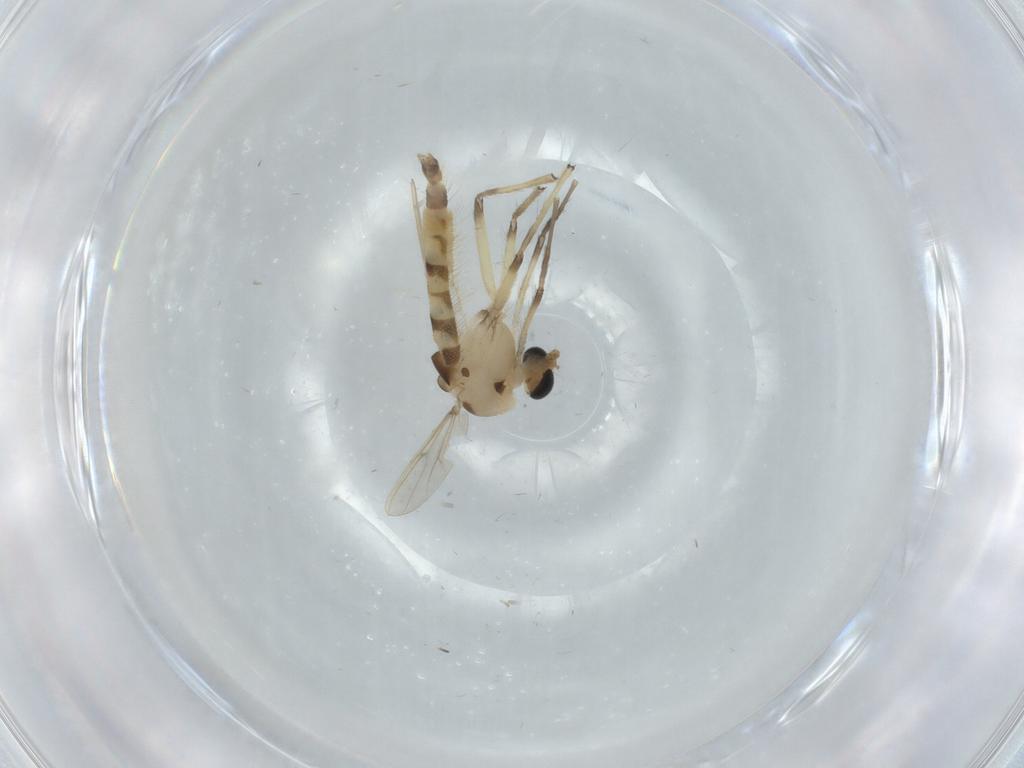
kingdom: Animalia
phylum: Arthropoda
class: Insecta
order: Diptera
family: Chironomidae
